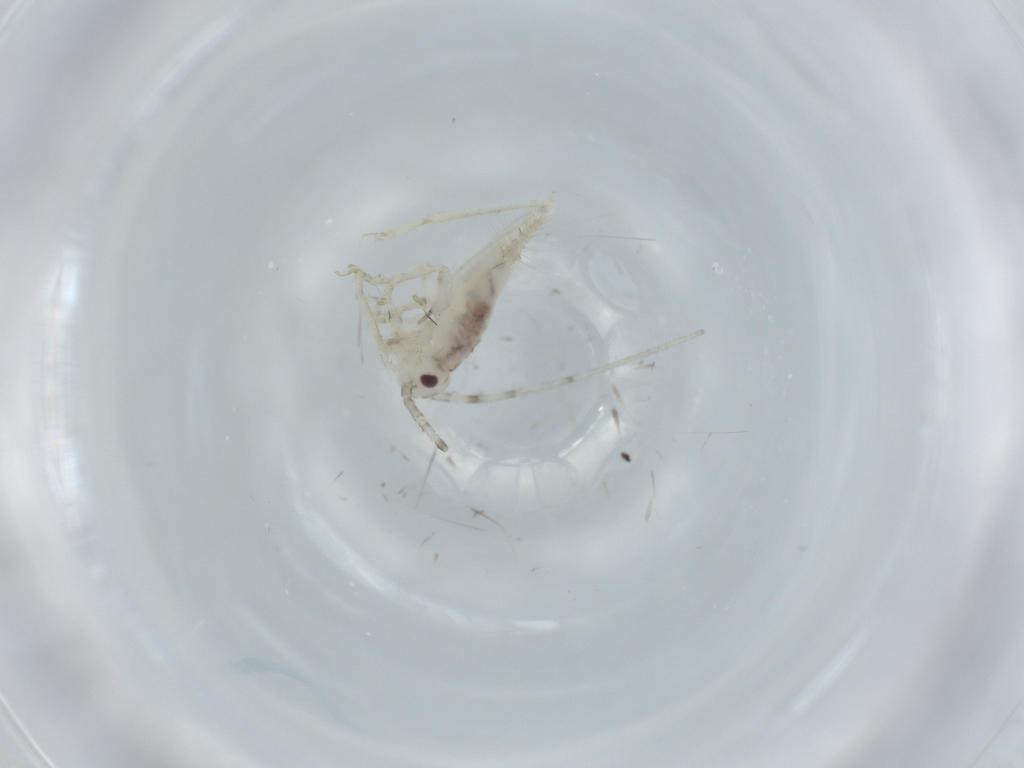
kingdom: Animalia
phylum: Arthropoda
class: Insecta
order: Orthoptera
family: Trigonidiidae
